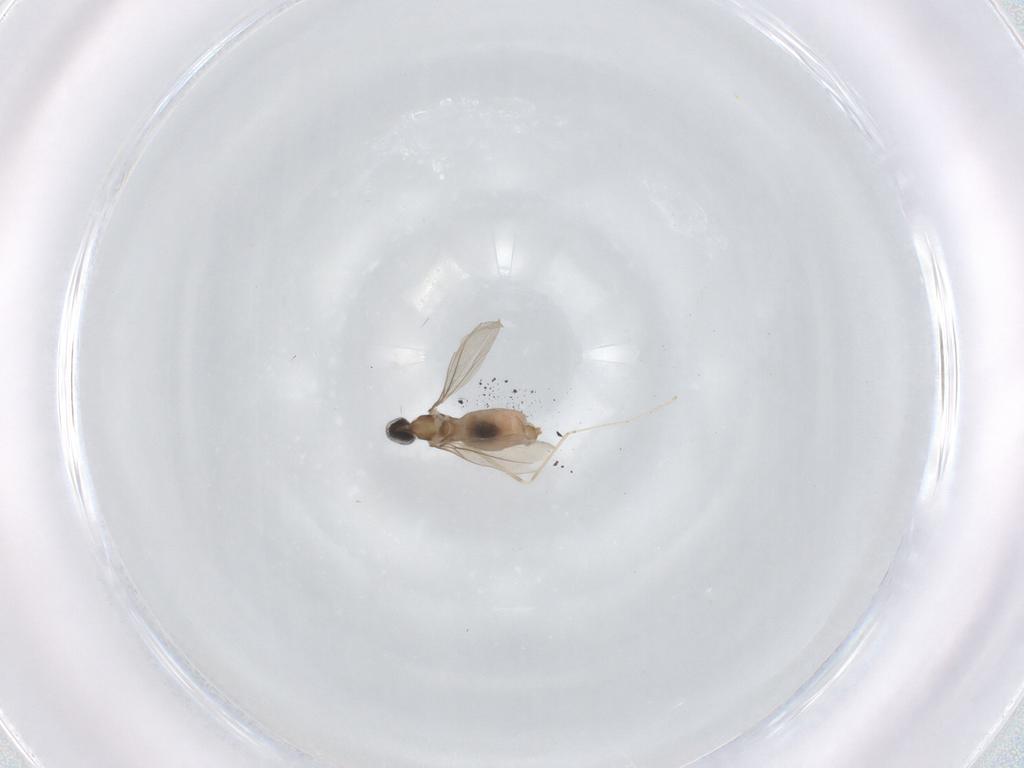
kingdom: Animalia
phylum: Arthropoda
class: Insecta
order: Diptera
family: Cecidomyiidae
